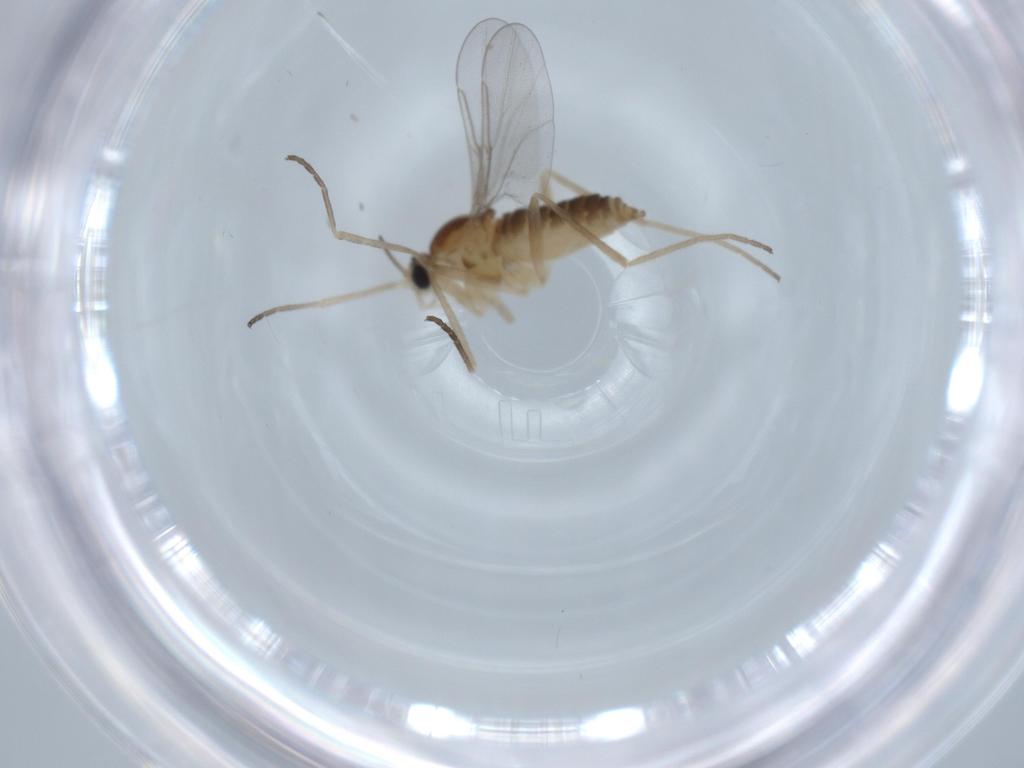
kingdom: Animalia
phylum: Arthropoda
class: Insecta
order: Diptera
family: Cecidomyiidae
